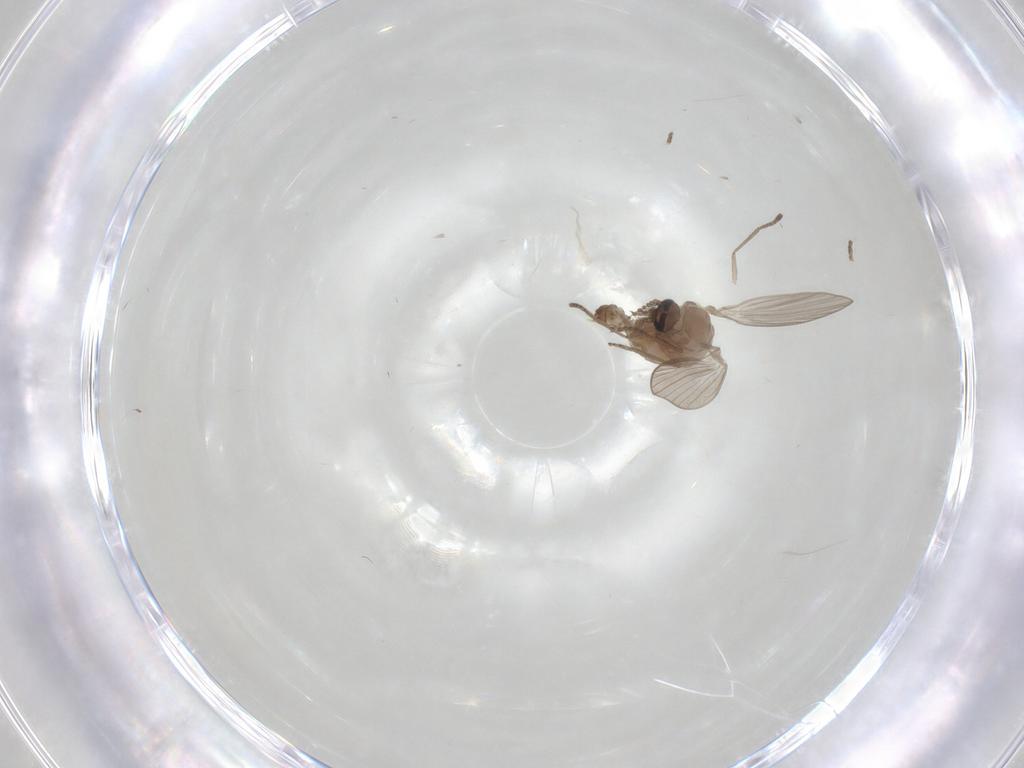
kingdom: Animalia
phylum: Arthropoda
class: Insecta
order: Diptera
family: Psychodidae
